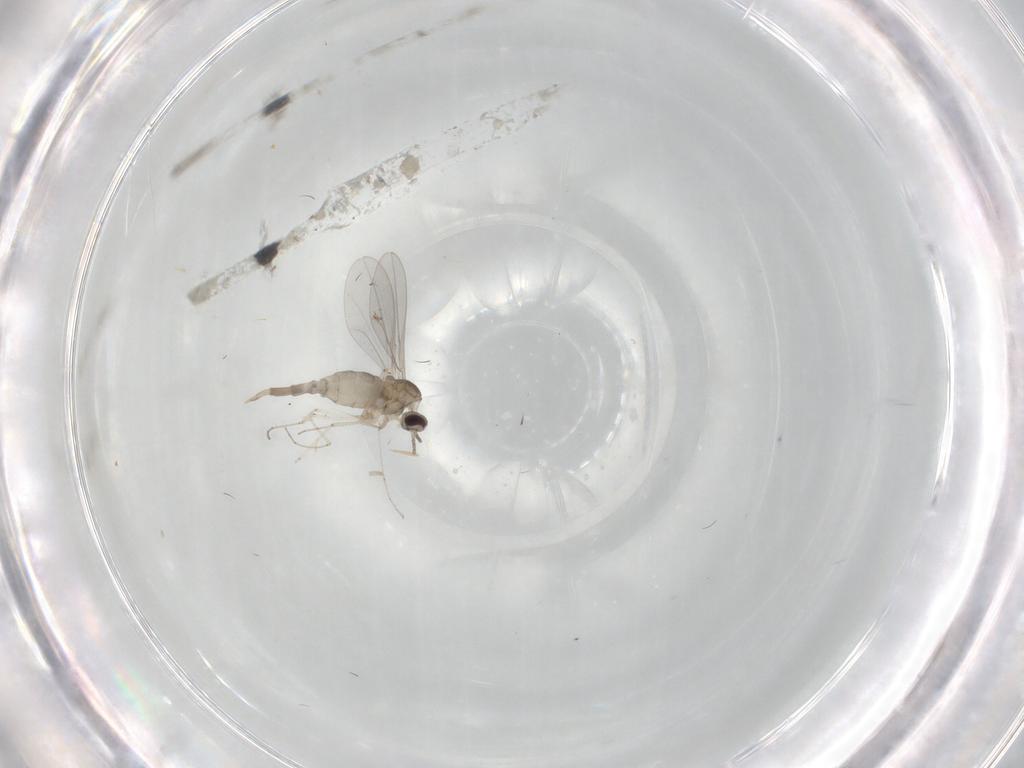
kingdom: Animalia
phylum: Arthropoda
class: Insecta
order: Diptera
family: Cecidomyiidae
